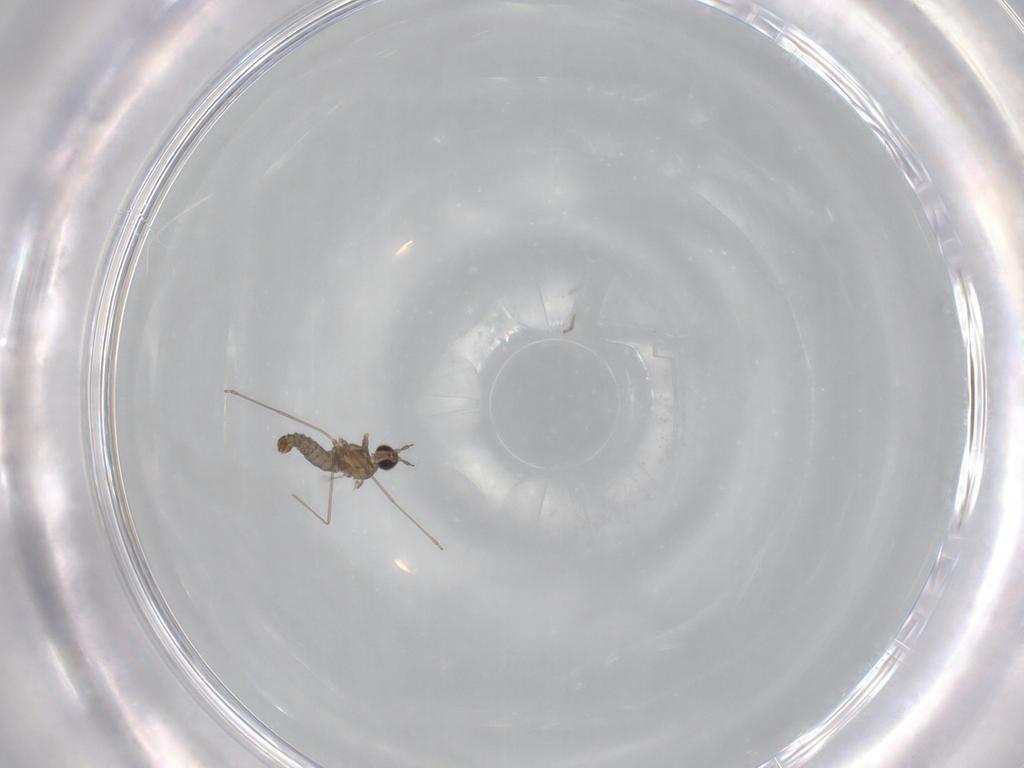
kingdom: Animalia
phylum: Arthropoda
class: Insecta
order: Diptera
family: Cecidomyiidae
